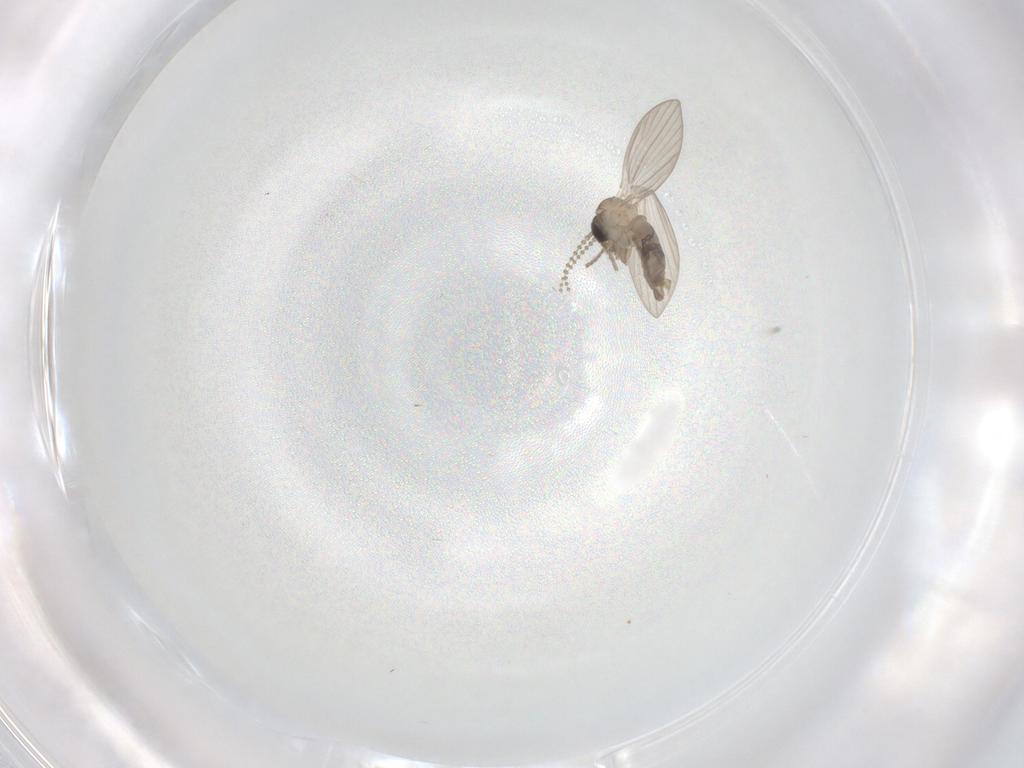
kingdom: Animalia
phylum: Arthropoda
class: Insecta
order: Diptera
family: Psychodidae
